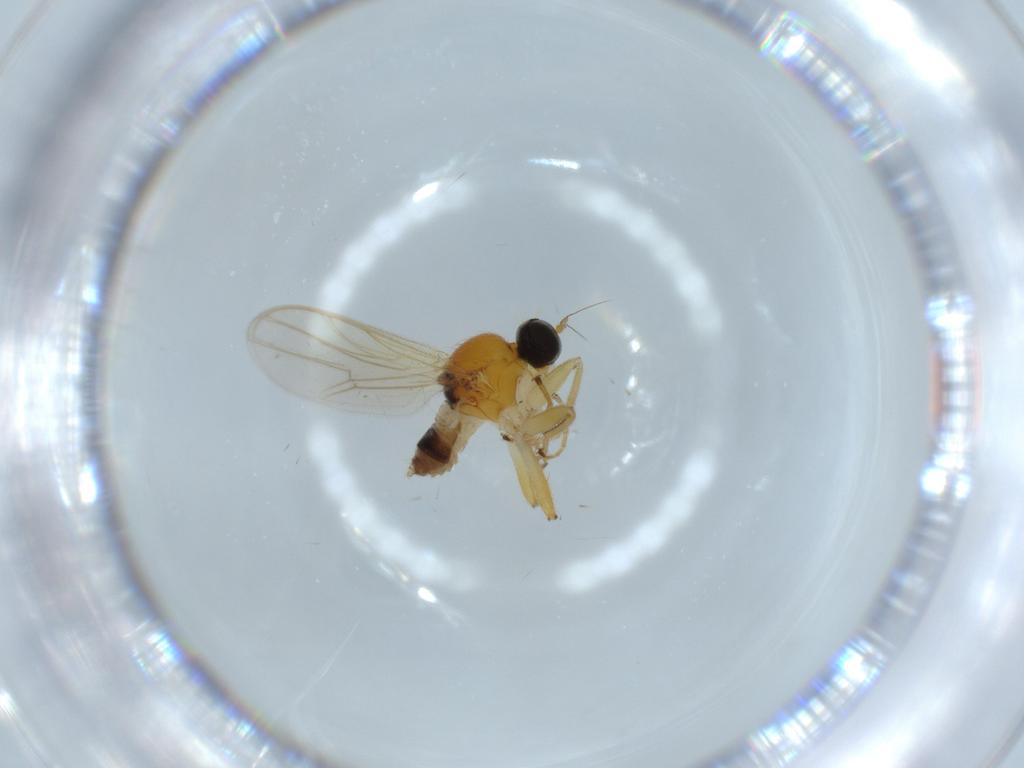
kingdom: Animalia
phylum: Arthropoda
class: Insecta
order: Diptera
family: Hybotidae
